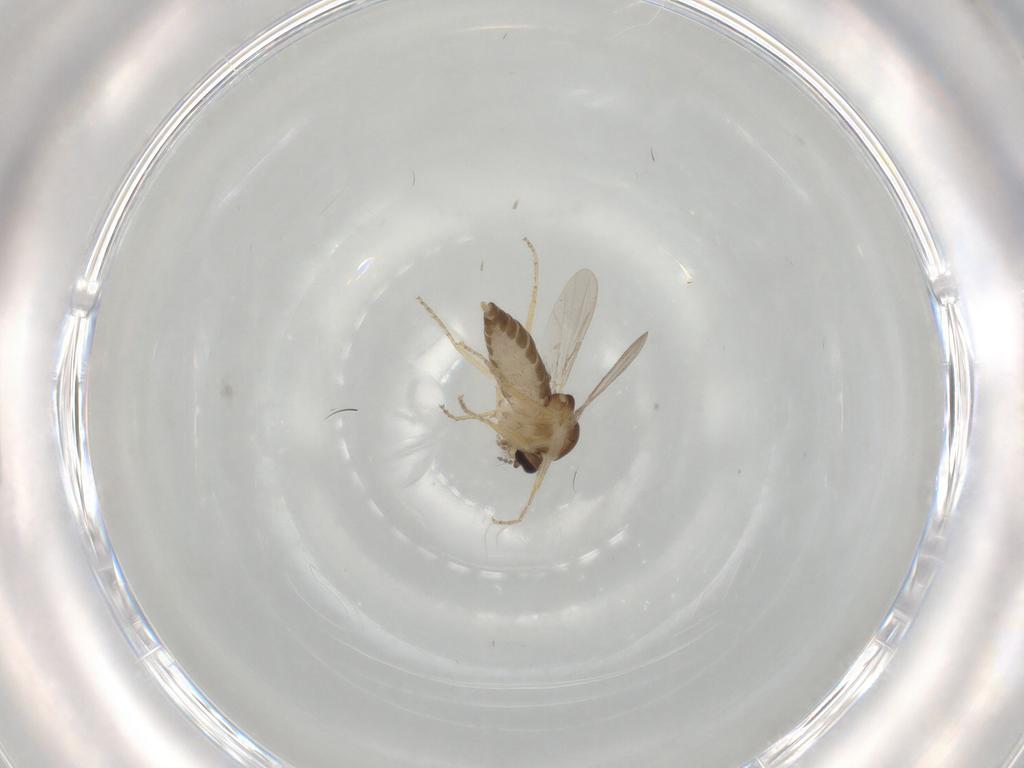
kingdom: Animalia
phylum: Arthropoda
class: Insecta
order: Diptera
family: Ceratopogonidae
